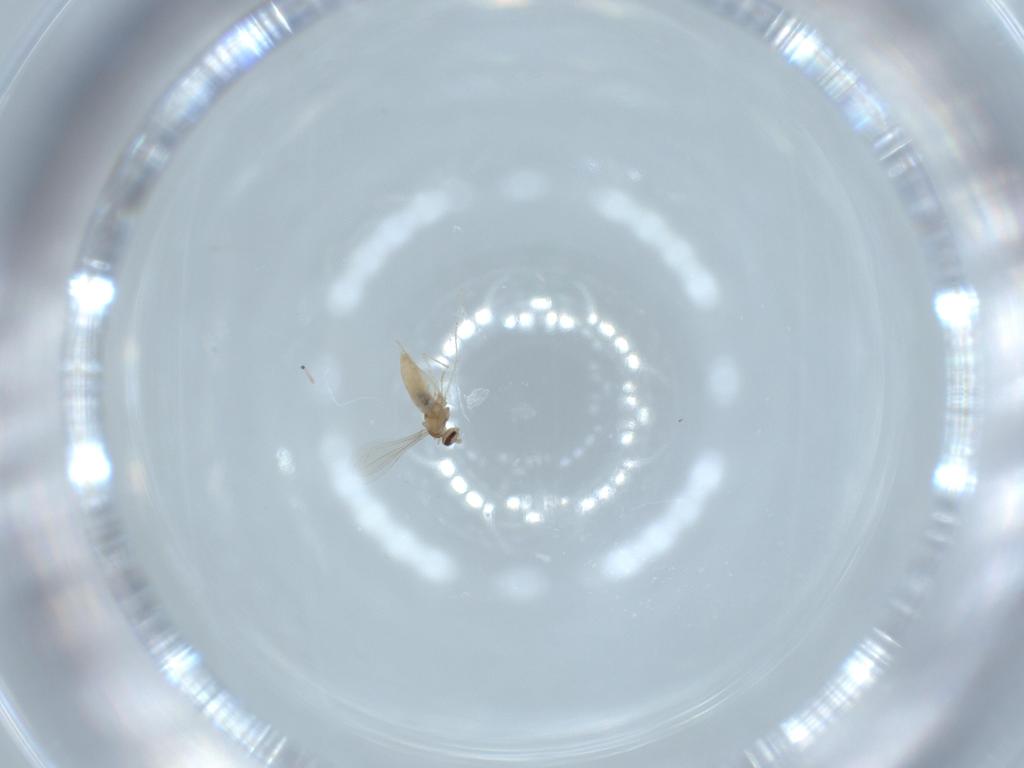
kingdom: Animalia
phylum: Arthropoda
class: Insecta
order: Diptera
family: Cecidomyiidae
